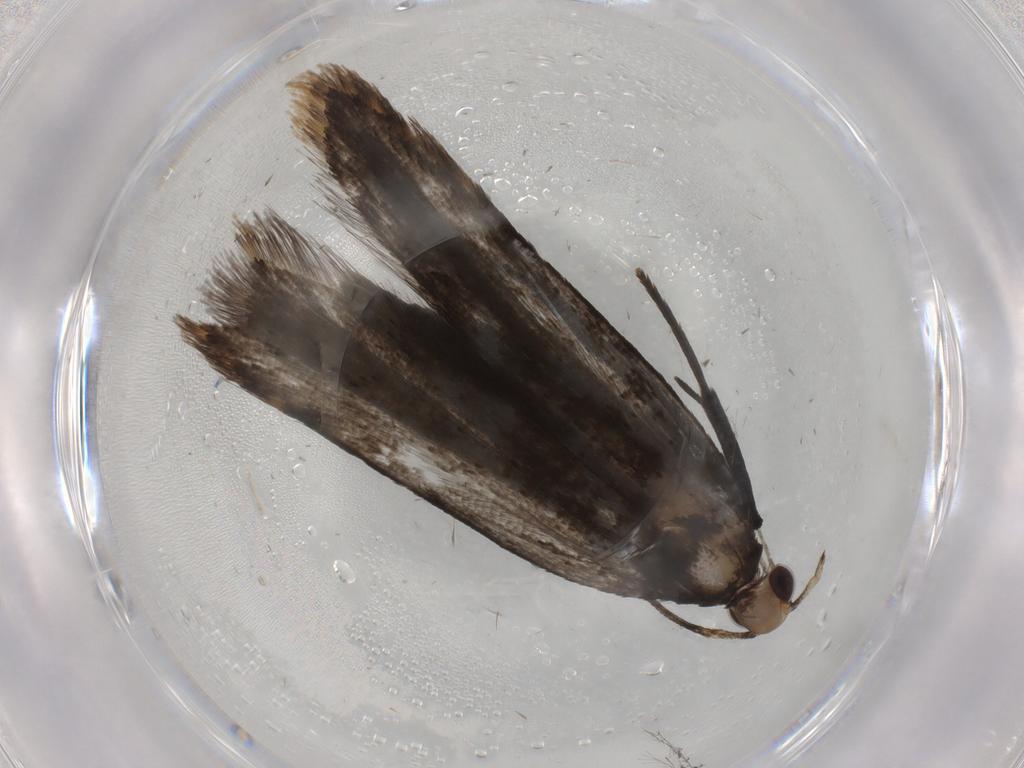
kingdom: Animalia
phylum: Arthropoda
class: Insecta
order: Lepidoptera
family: Gelechiidae
